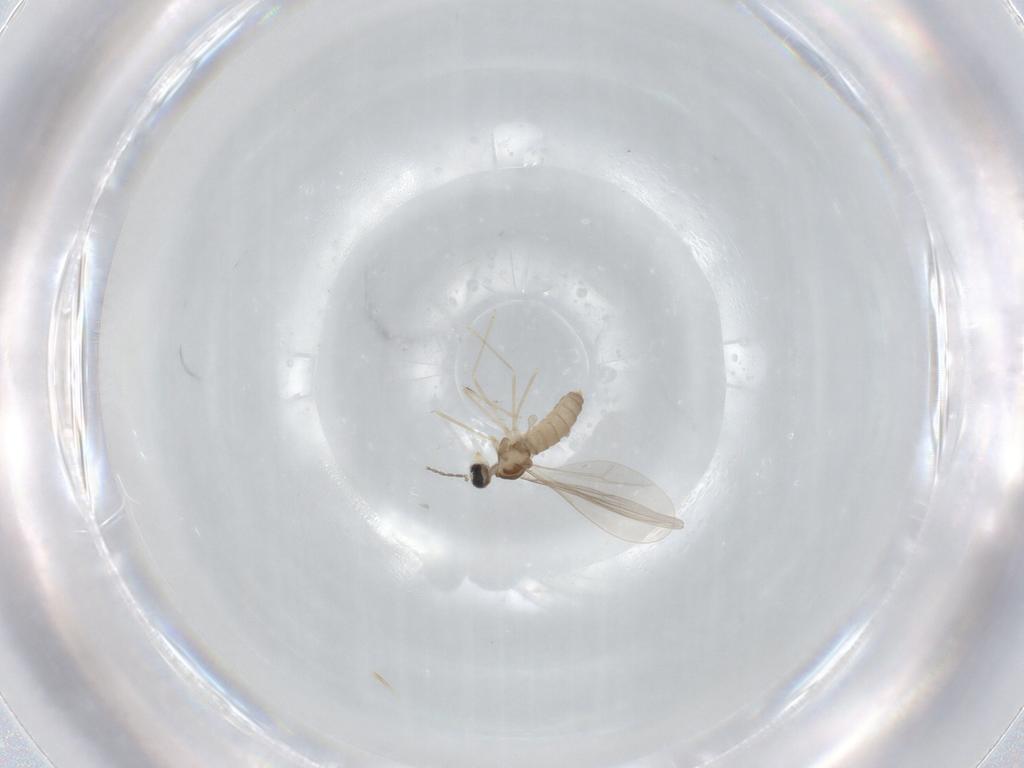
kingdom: Animalia
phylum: Arthropoda
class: Insecta
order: Diptera
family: Cecidomyiidae
